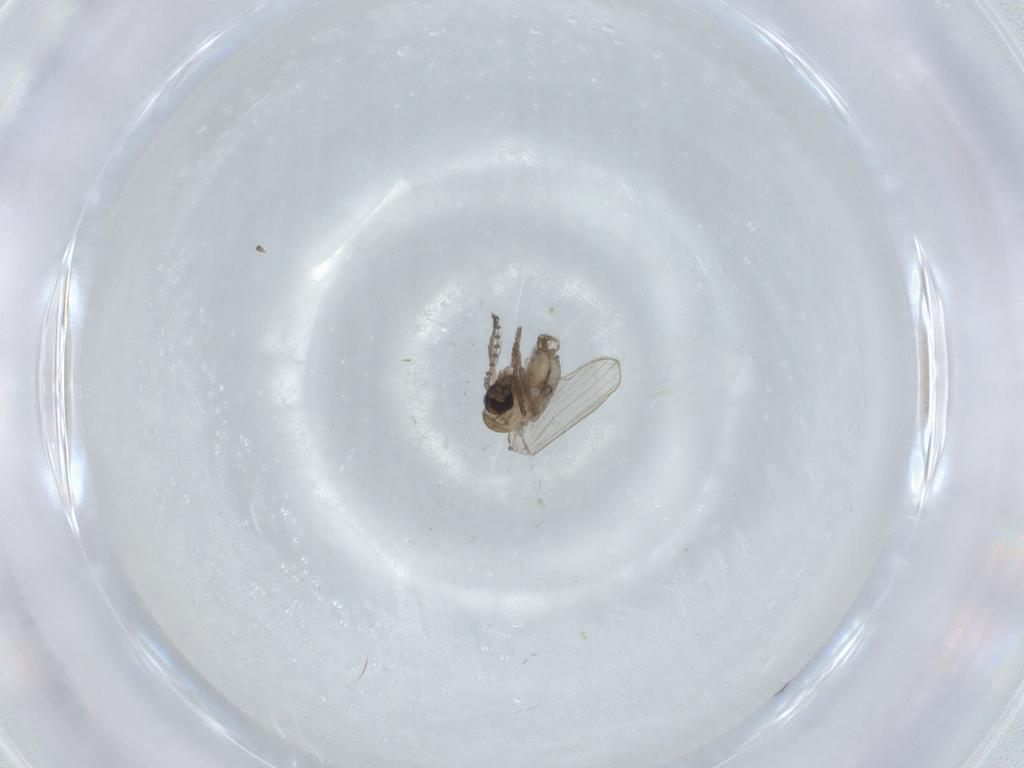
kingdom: Animalia
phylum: Arthropoda
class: Insecta
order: Diptera
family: Psychodidae
